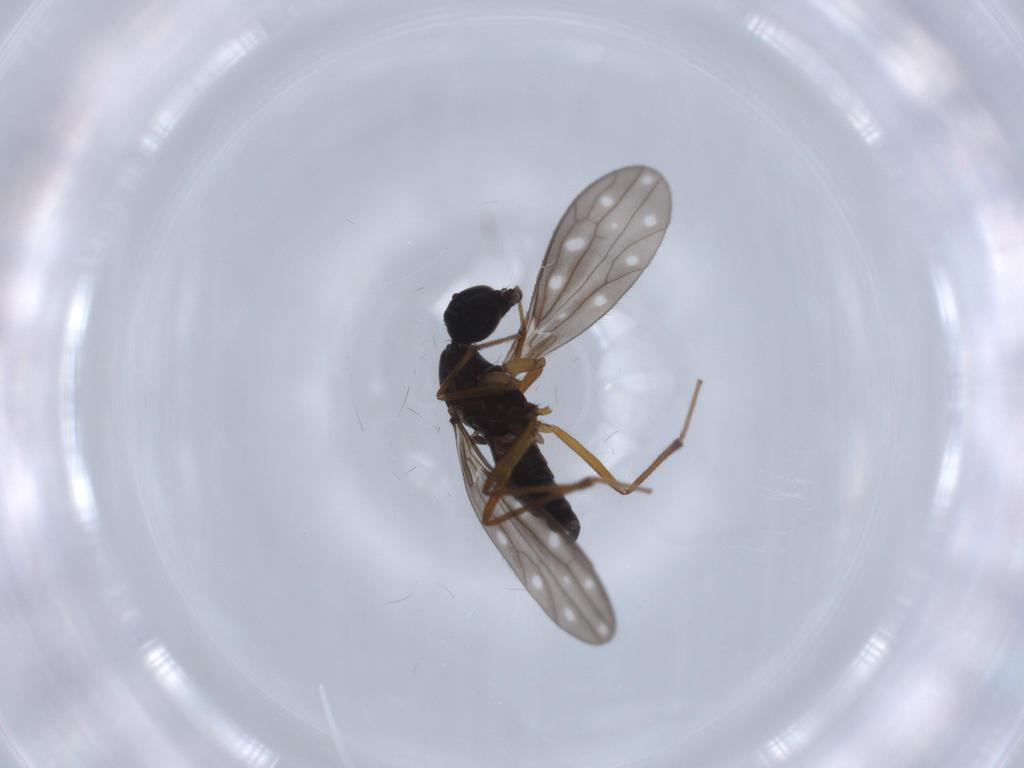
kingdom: Animalia
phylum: Arthropoda
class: Insecta
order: Diptera
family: Empididae
